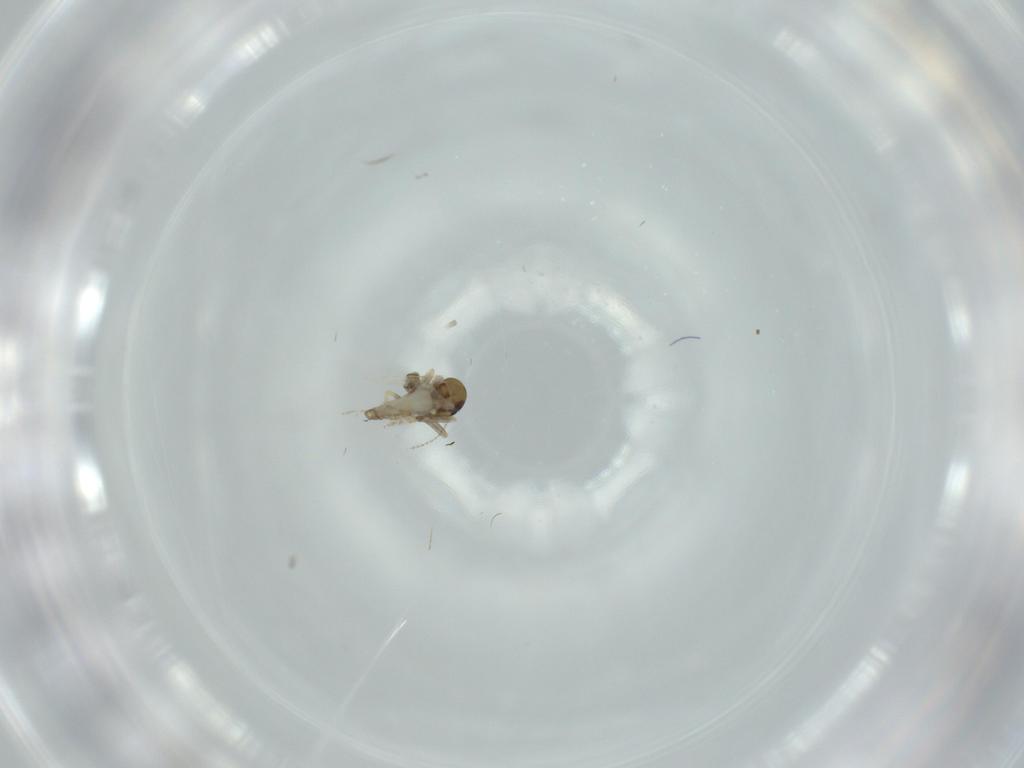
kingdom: Animalia
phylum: Arthropoda
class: Insecta
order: Diptera
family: Ceratopogonidae
